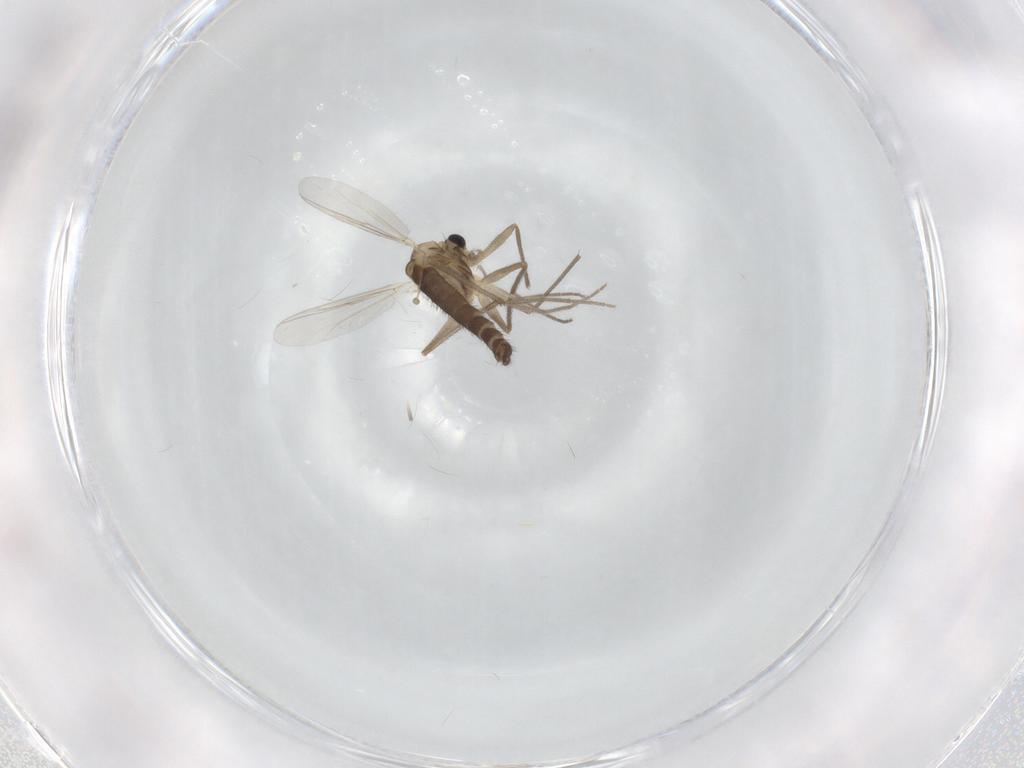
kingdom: Animalia
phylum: Arthropoda
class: Insecta
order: Diptera
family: Chironomidae
